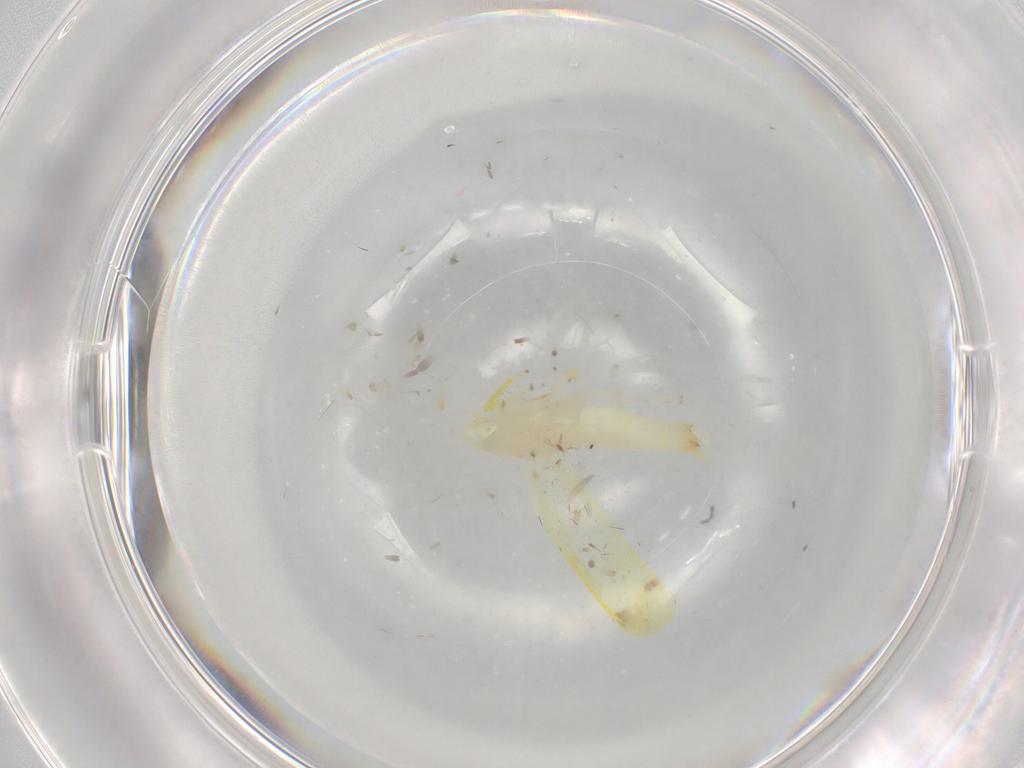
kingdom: Animalia
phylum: Arthropoda
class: Insecta
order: Hemiptera
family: Cicadellidae
